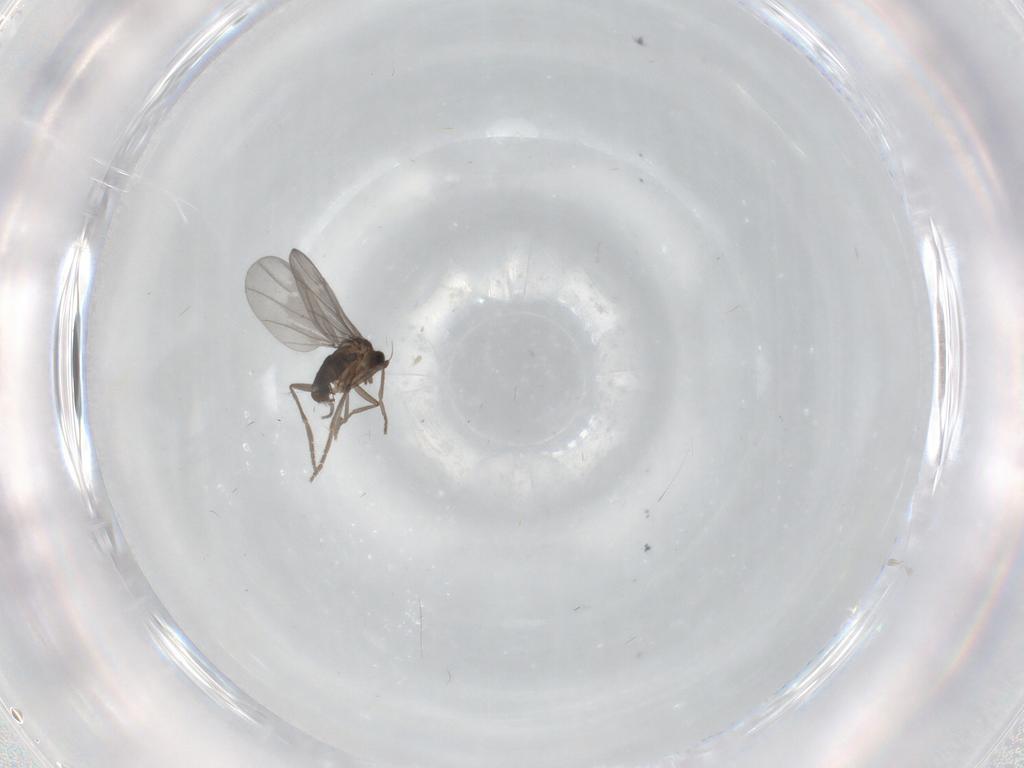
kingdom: Animalia
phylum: Arthropoda
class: Insecta
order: Diptera
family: Phoridae
